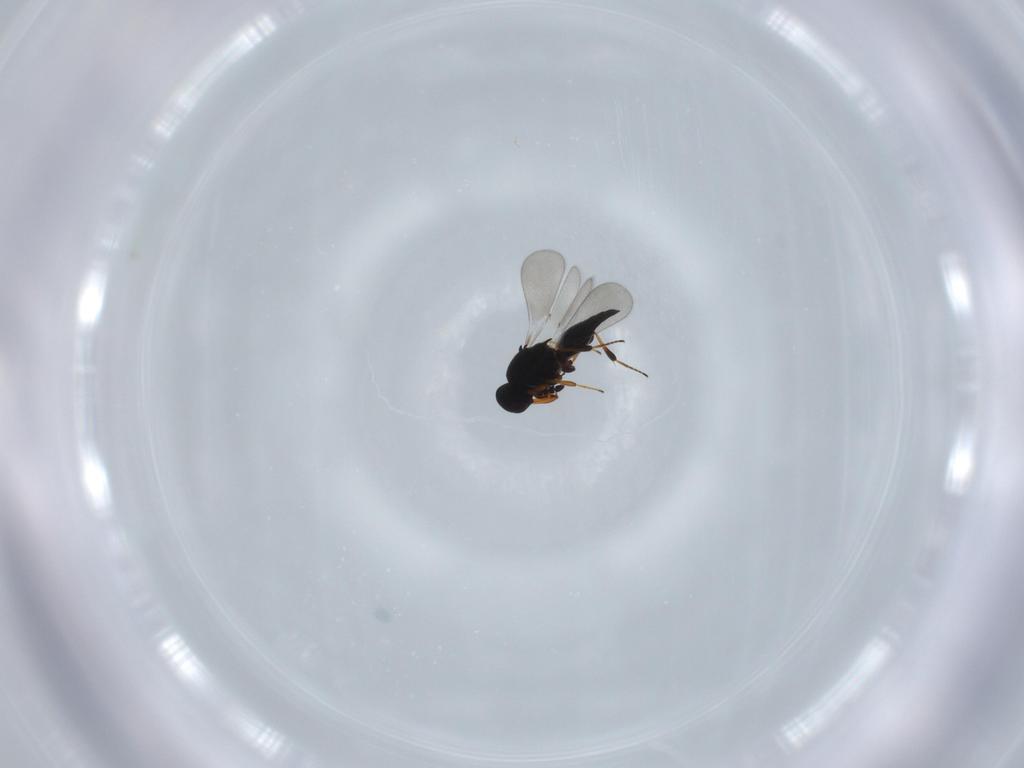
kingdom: Animalia
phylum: Arthropoda
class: Insecta
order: Hymenoptera
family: Platygastridae
